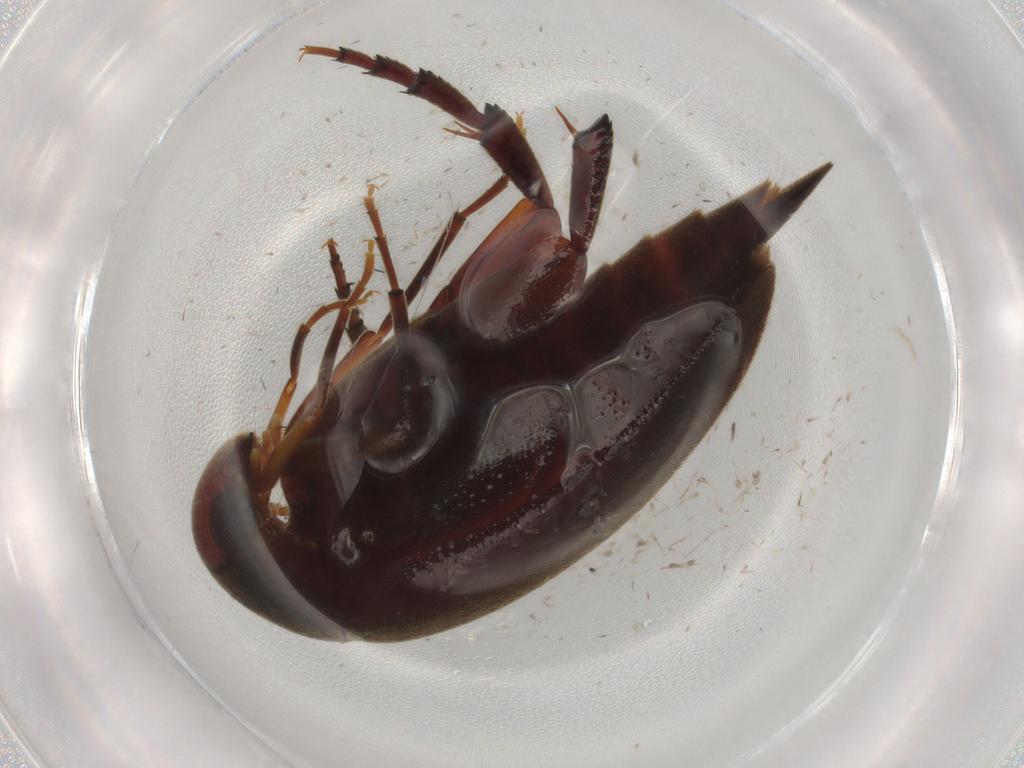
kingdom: Animalia
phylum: Arthropoda
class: Insecta
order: Coleoptera
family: Mordellidae
